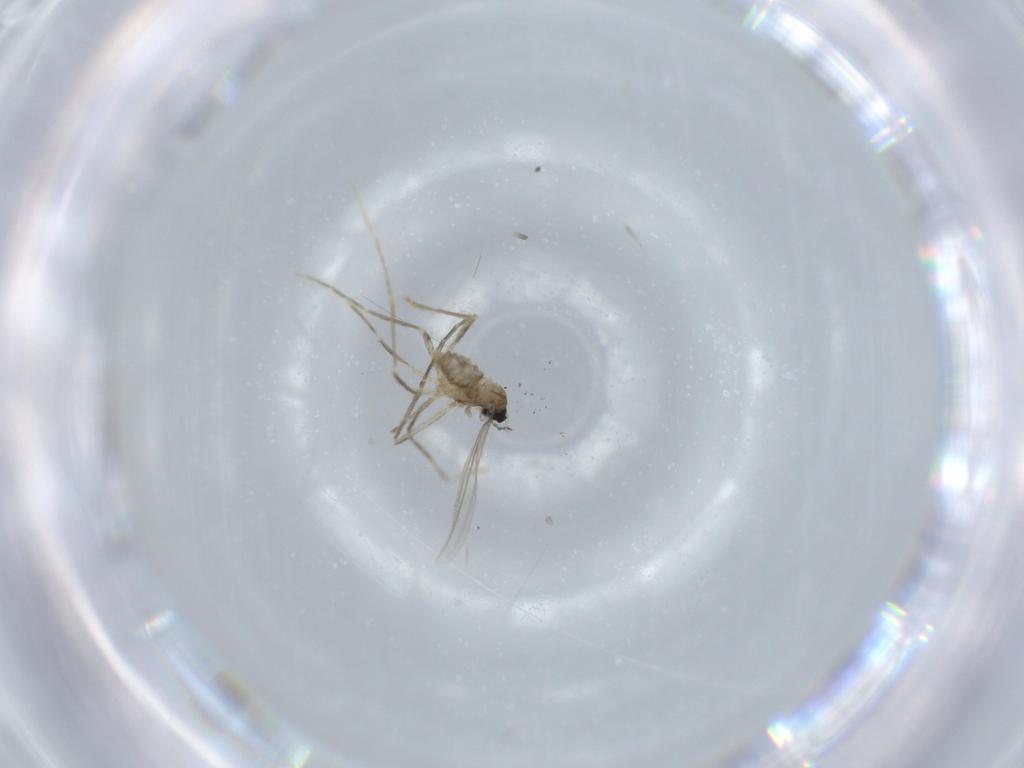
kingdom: Animalia
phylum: Arthropoda
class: Insecta
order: Diptera
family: Cecidomyiidae
